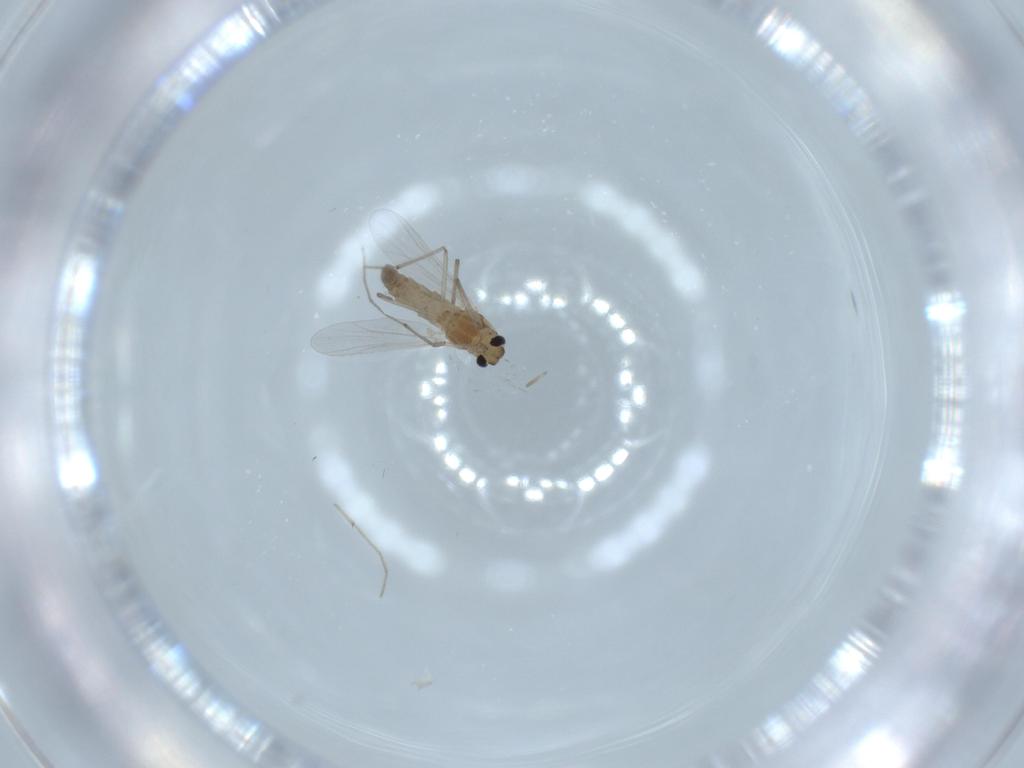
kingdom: Animalia
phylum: Arthropoda
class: Insecta
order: Diptera
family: Chironomidae
